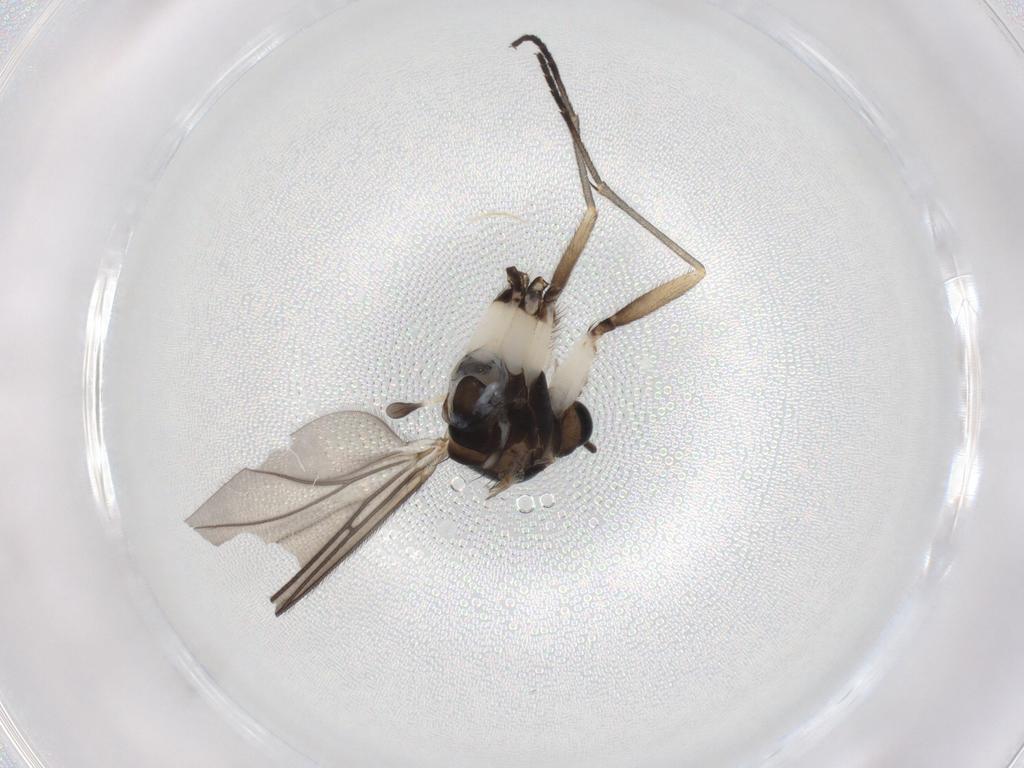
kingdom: Animalia
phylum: Arthropoda
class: Insecta
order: Diptera
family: Sciaridae
